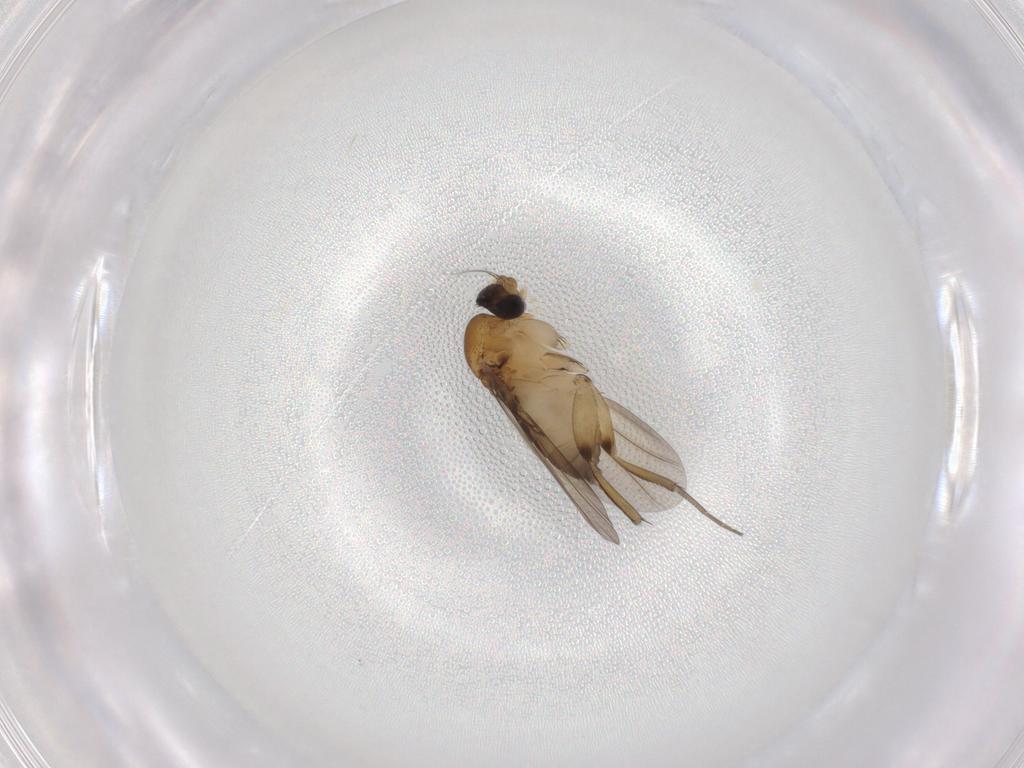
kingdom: Animalia
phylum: Arthropoda
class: Insecta
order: Diptera
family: Phoridae
